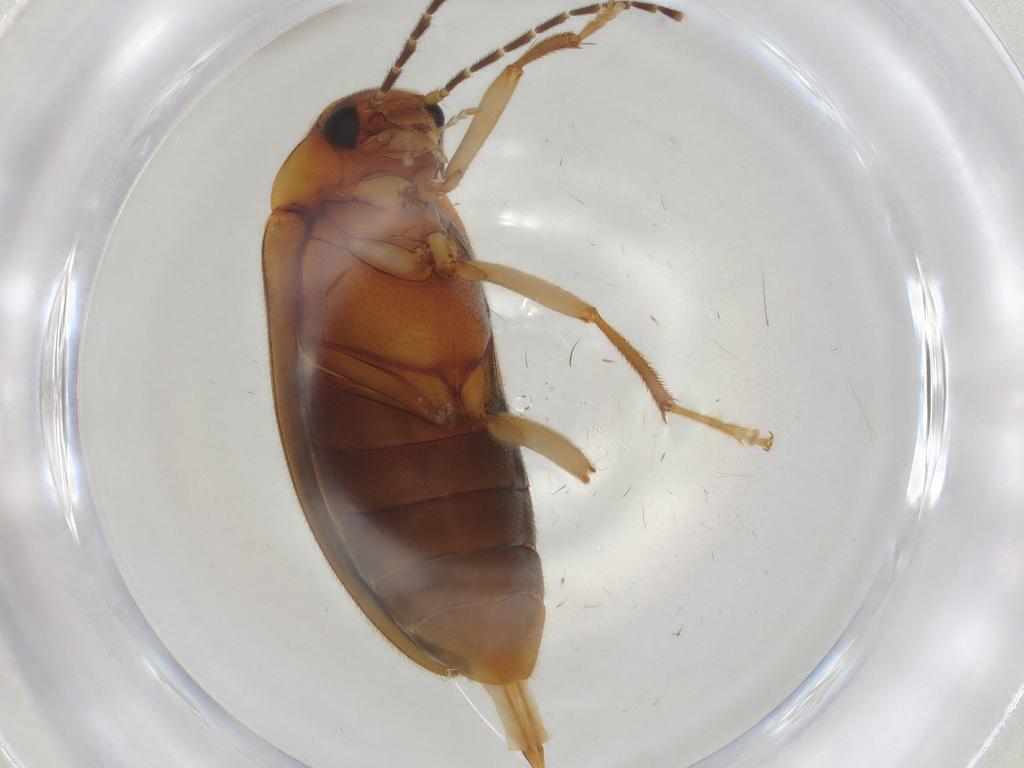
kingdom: Animalia
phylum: Arthropoda
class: Insecta
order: Coleoptera
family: Ptilodactylidae
